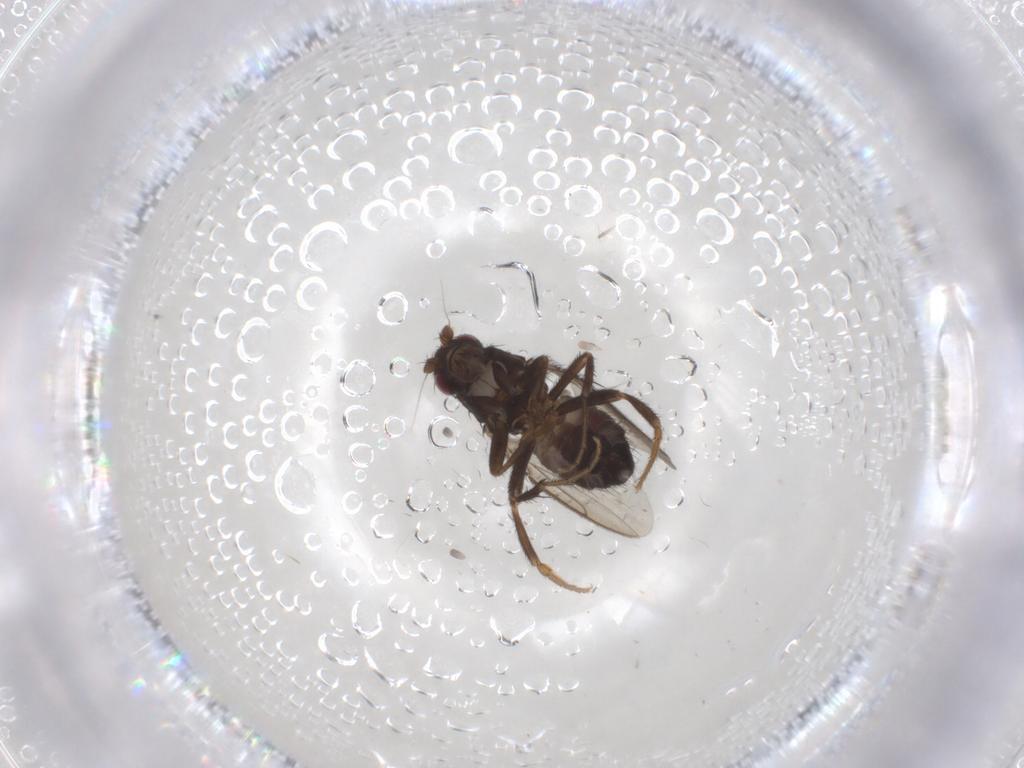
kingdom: Animalia
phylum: Arthropoda
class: Insecta
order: Diptera
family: Sphaeroceridae
